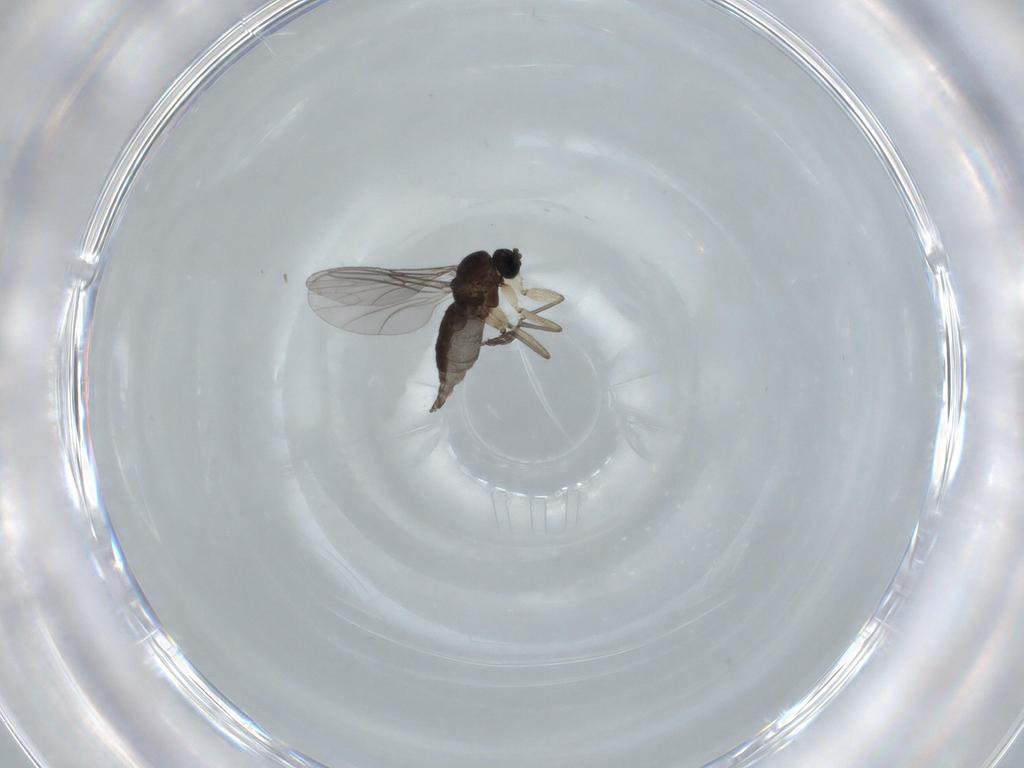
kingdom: Animalia
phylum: Arthropoda
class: Insecta
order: Diptera
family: Sciaridae
